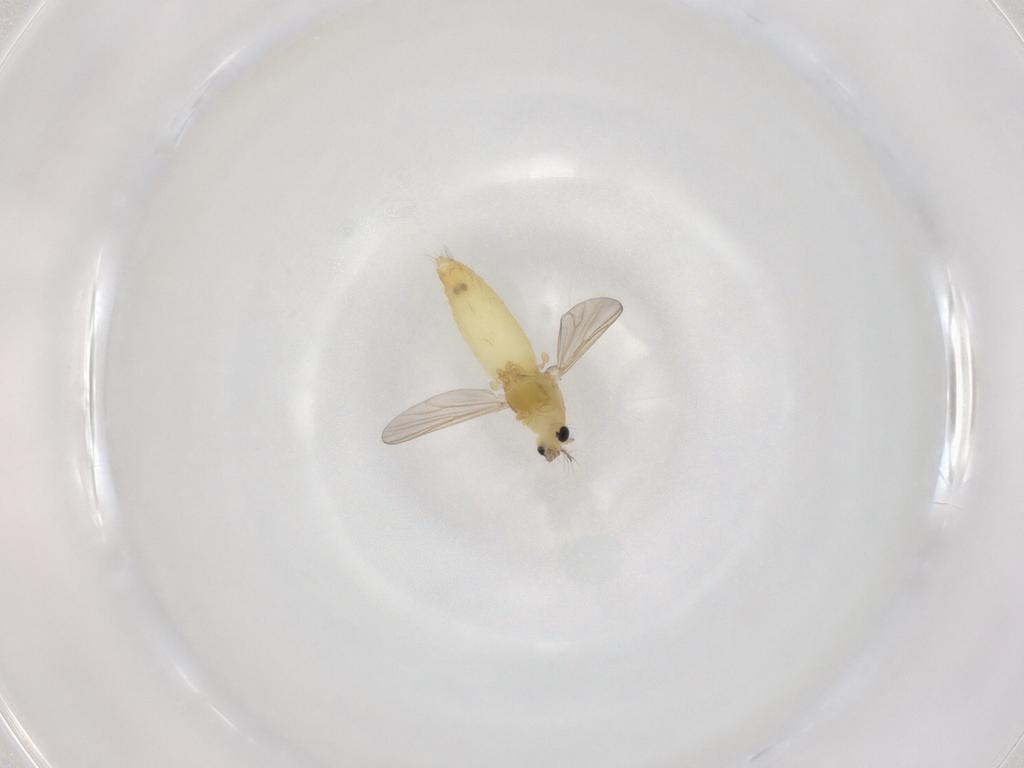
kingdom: Animalia
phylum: Arthropoda
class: Insecta
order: Diptera
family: Chironomidae
